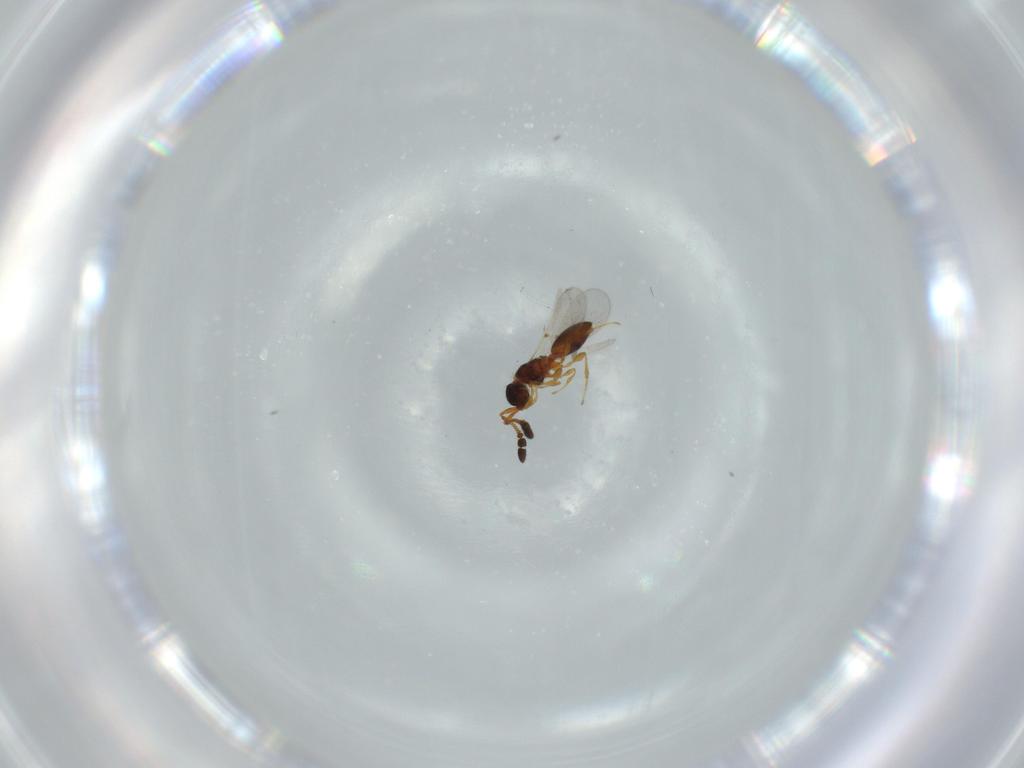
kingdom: Animalia
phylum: Arthropoda
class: Insecta
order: Hymenoptera
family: Diapriidae
